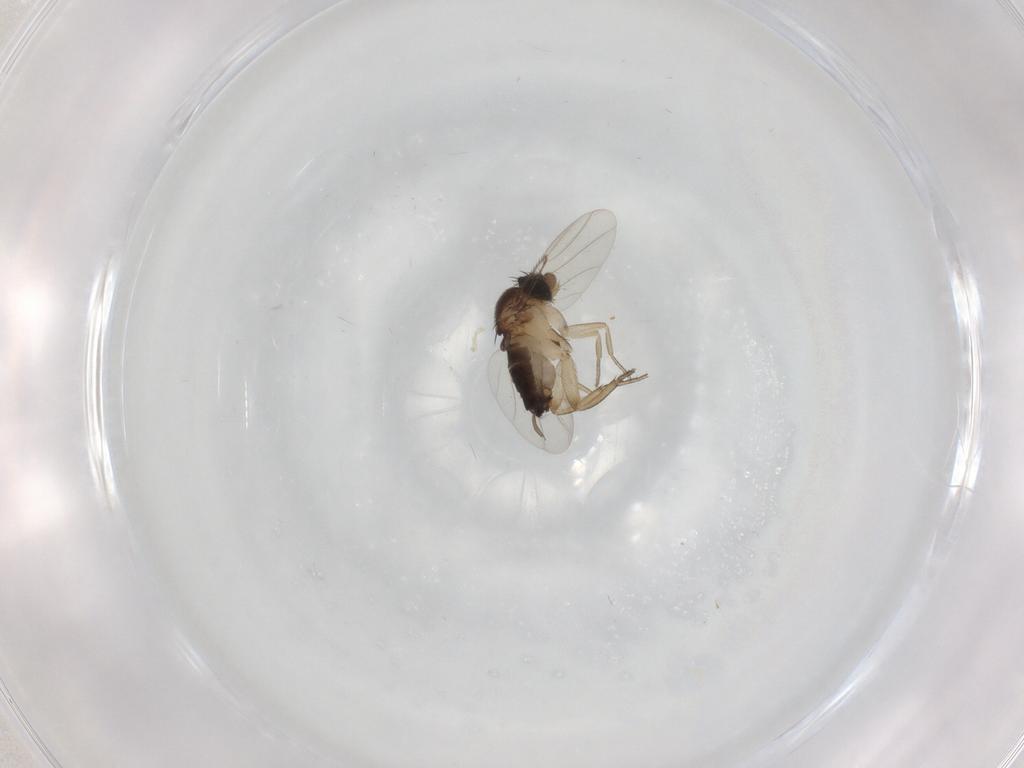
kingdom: Animalia
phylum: Arthropoda
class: Insecta
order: Diptera
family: Phoridae
